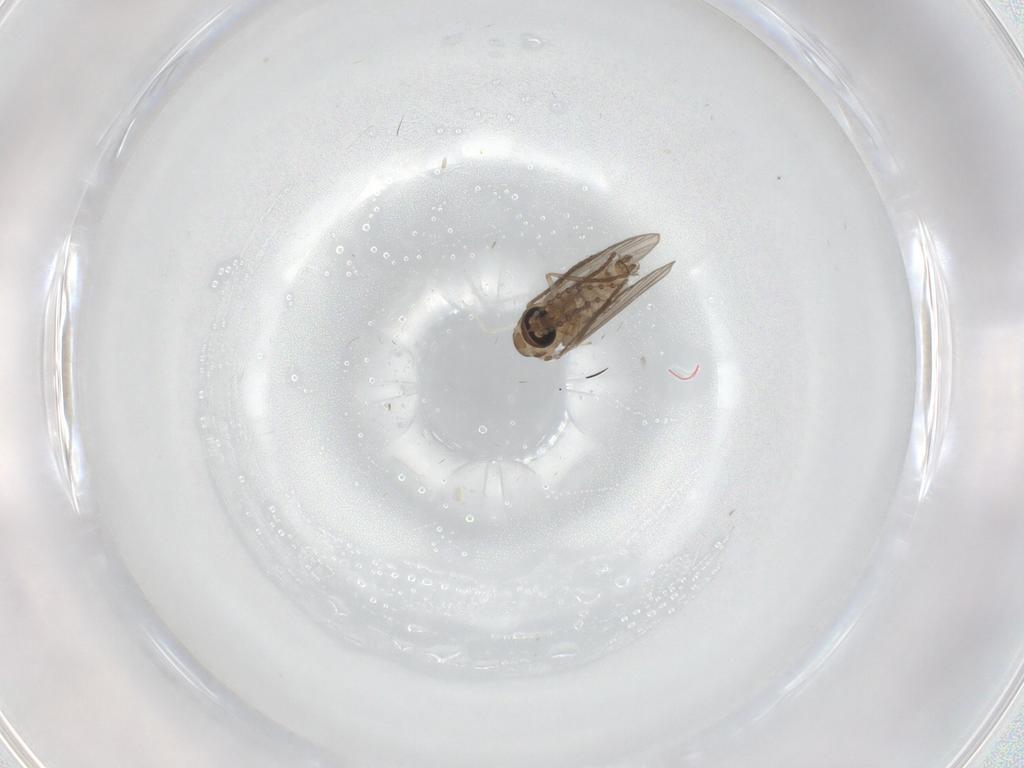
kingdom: Animalia
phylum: Arthropoda
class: Insecta
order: Diptera
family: Psychodidae
